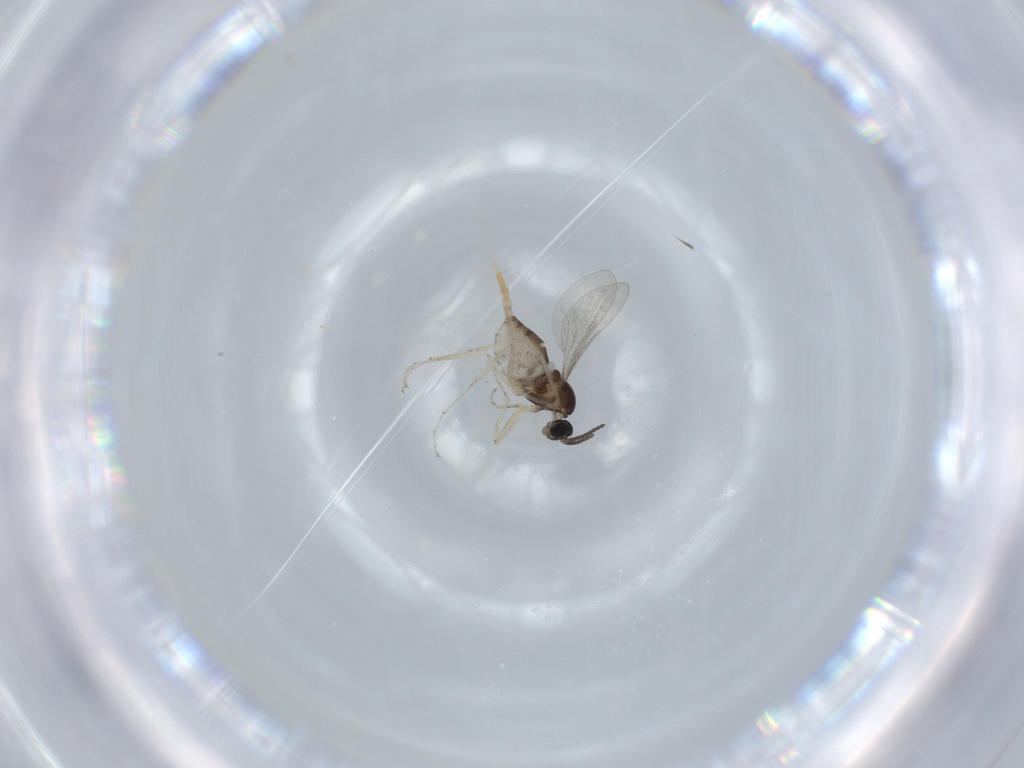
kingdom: Animalia
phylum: Arthropoda
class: Insecta
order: Diptera
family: Cecidomyiidae
